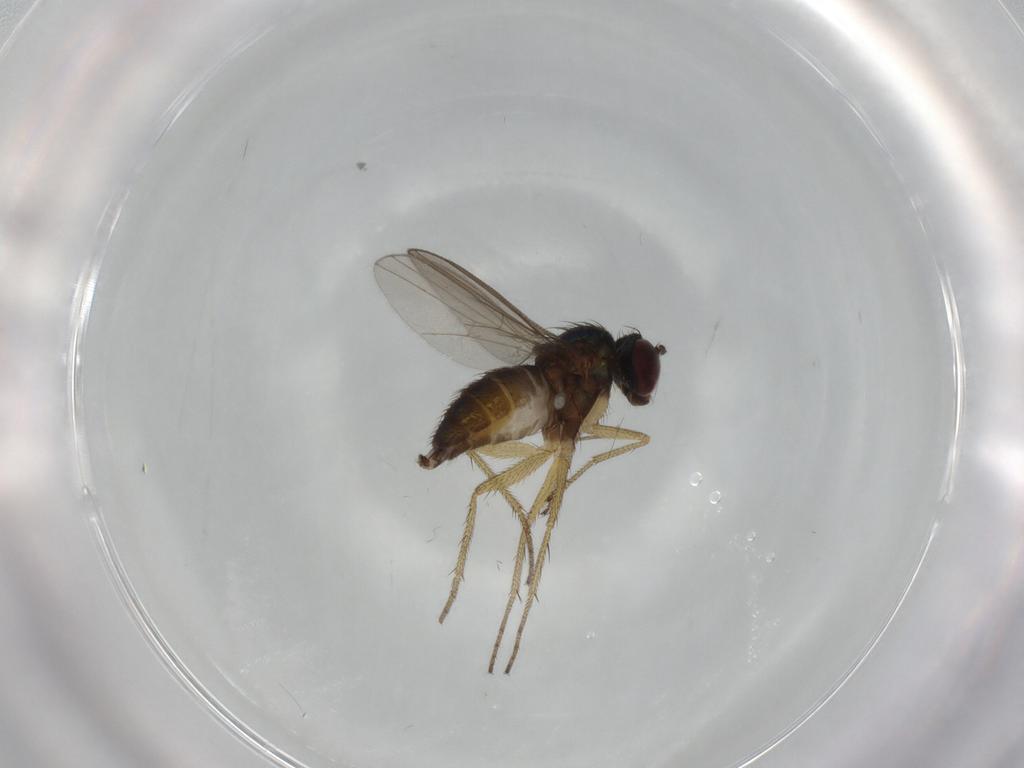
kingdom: Animalia
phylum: Arthropoda
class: Insecta
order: Diptera
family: Chironomidae
